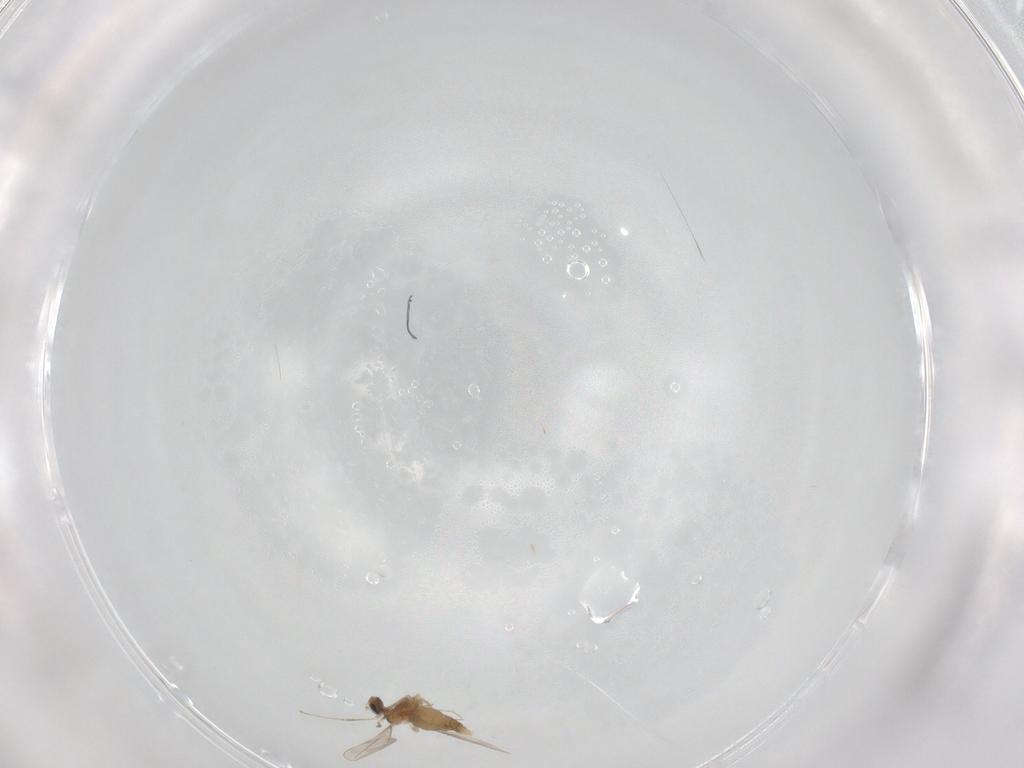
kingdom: Animalia
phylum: Arthropoda
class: Insecta
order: Diptera
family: Cecidomyiidae
